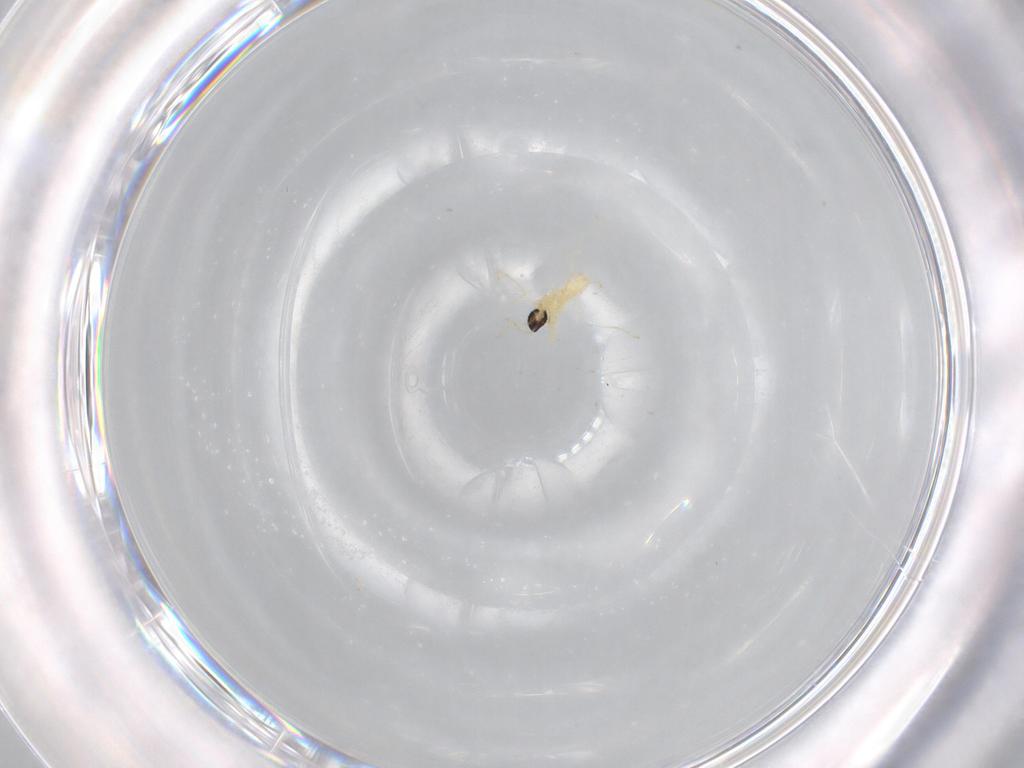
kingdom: Animalia
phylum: Arthropoda
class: Insecta
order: Diptera
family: Cecidomyiidae
